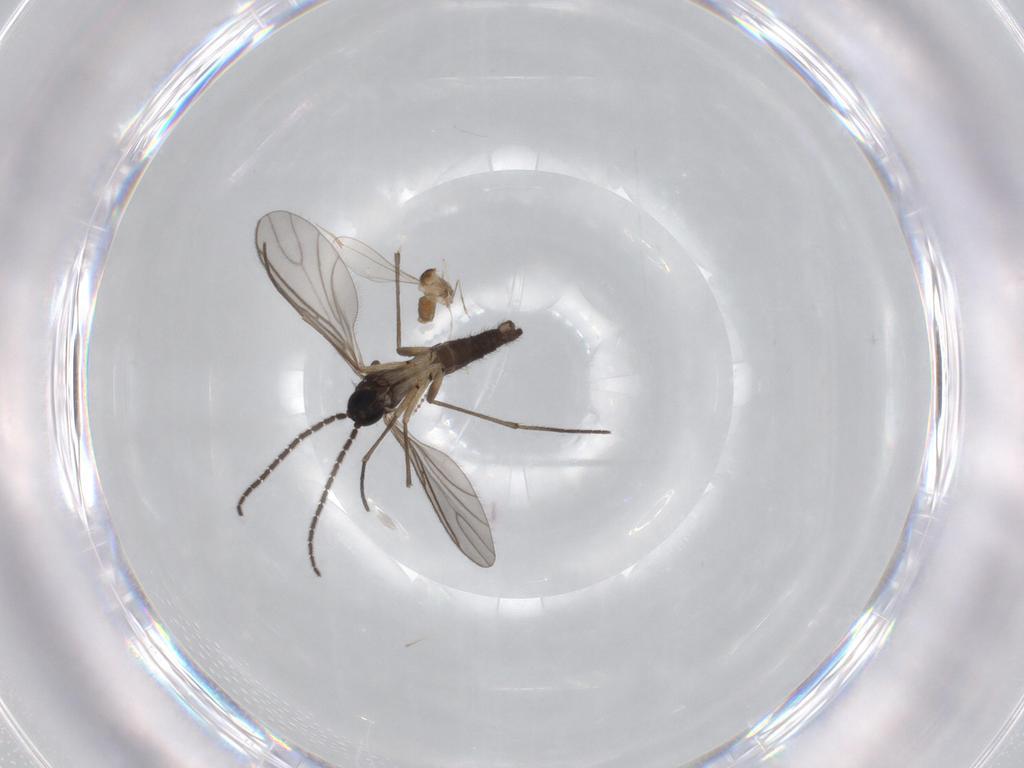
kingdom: Animalia
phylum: Arthropoda
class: Insecta
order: Diptera
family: Sciaridae
